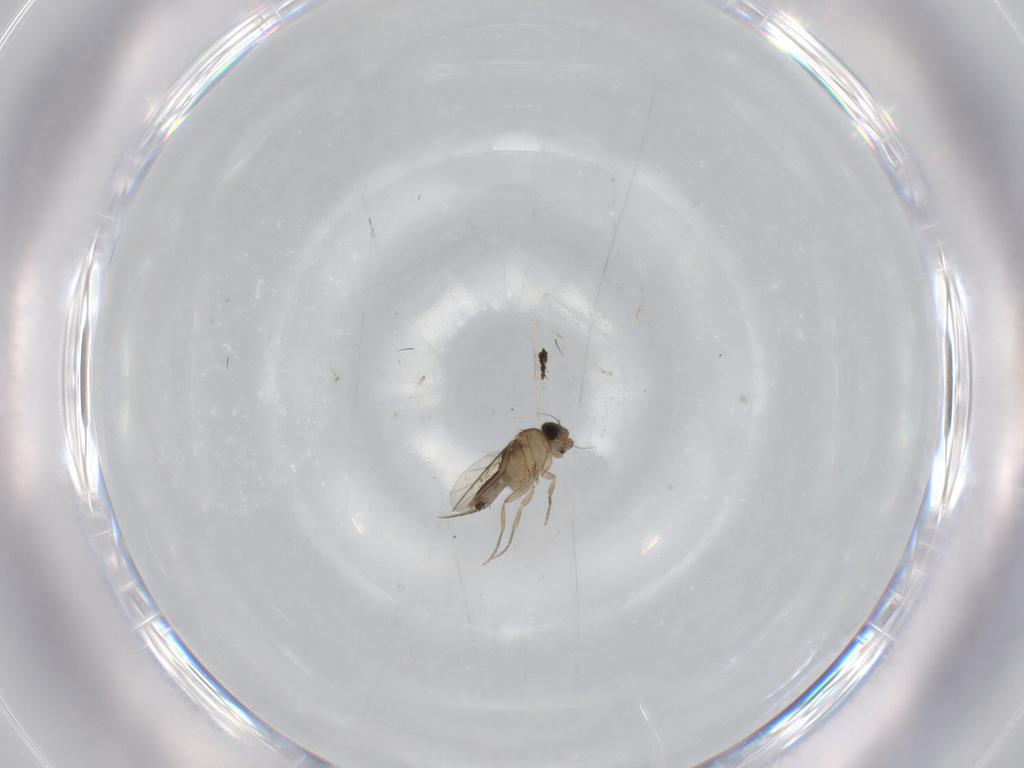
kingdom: Animalia
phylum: Arthropoda
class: Insecta
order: Diptera
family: Phoridae
